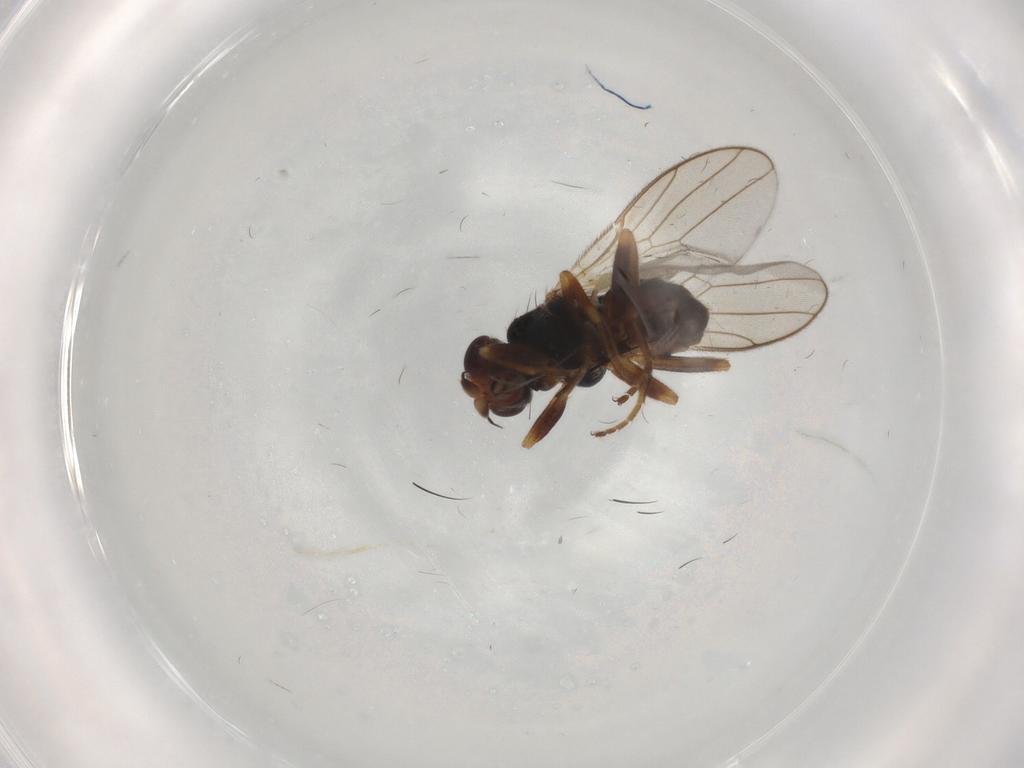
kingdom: Animalia
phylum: Arthropoda
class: Insecta
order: Diptera
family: Chloropidae
